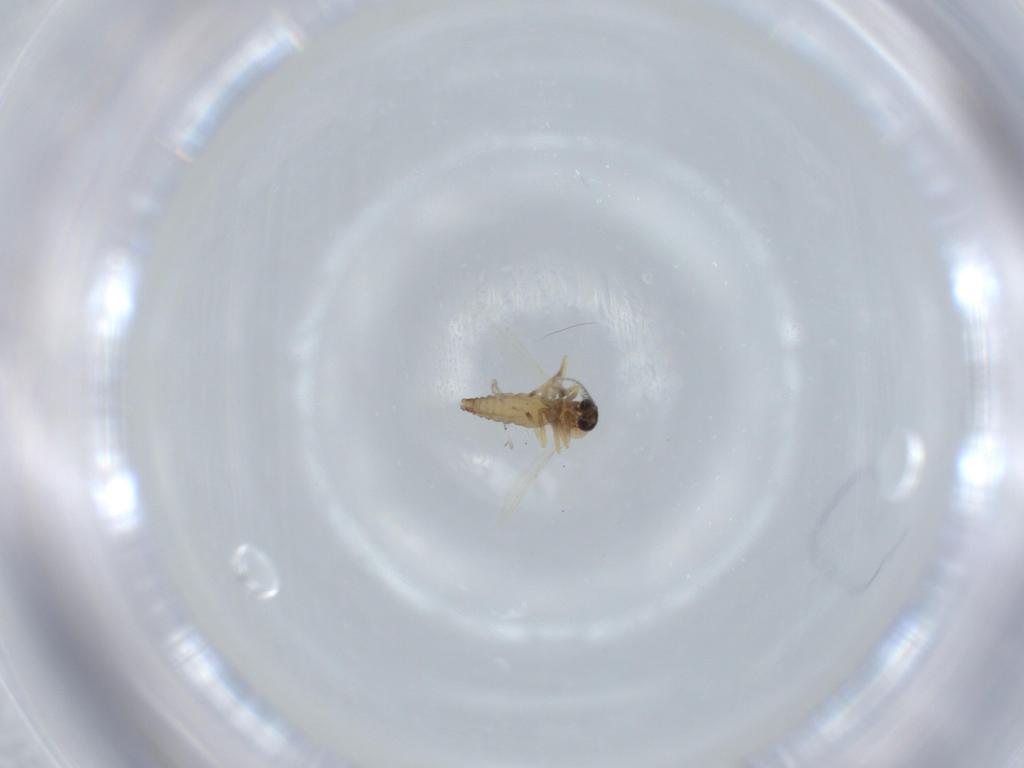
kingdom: Animalia
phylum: Arthropoda
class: Insecta
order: Diptera
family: Ceratopogonidae
